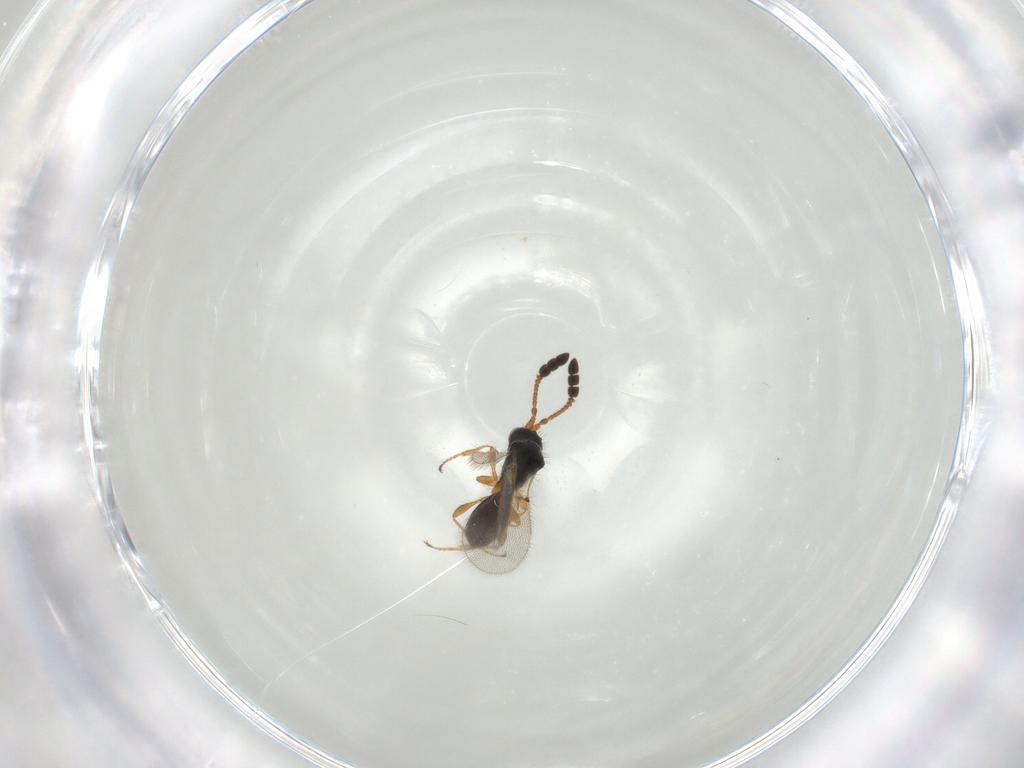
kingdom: Animalia
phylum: Arthropoda
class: Insecta
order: Hymenoptera
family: Diapriidae
